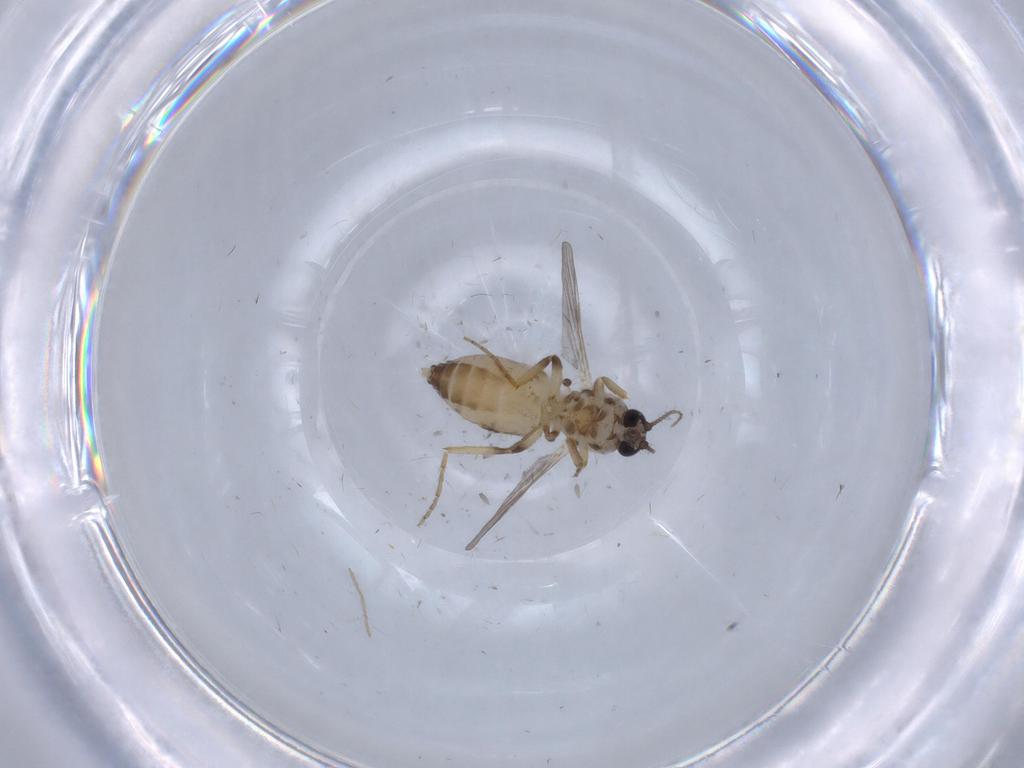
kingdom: Animalia
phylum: Arthropoda
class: Insecta
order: Diptera
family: Ceratopogonidae
